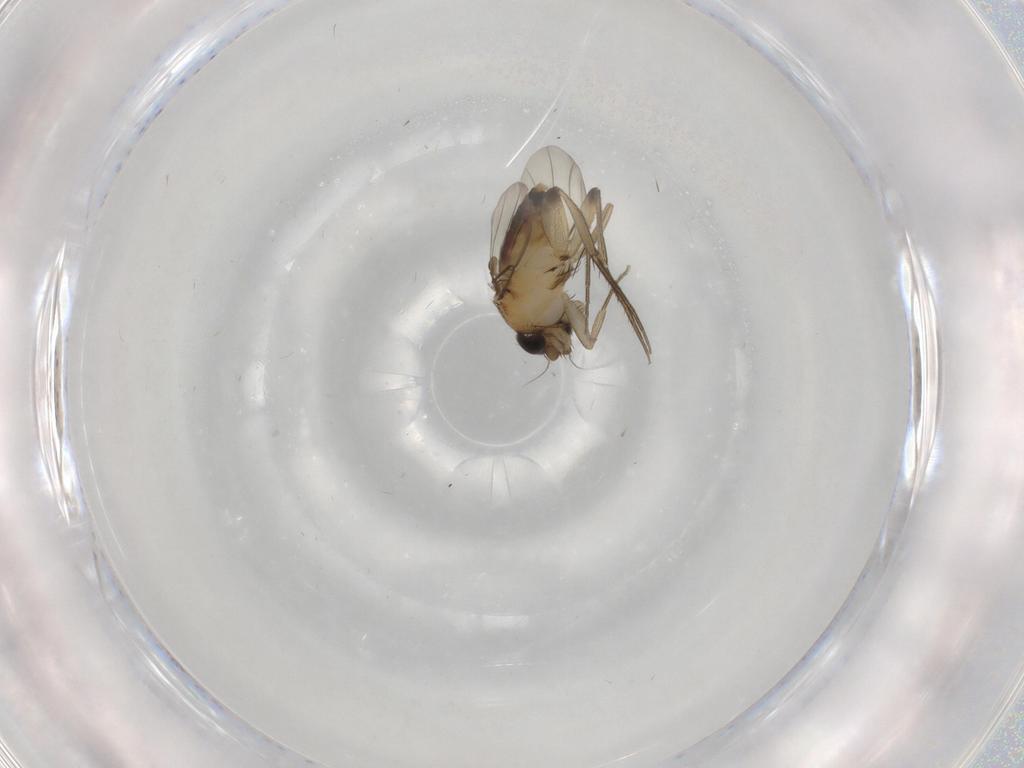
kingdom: Animalia
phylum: Arthropoda
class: Insecta
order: Diptera
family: Phoridae
